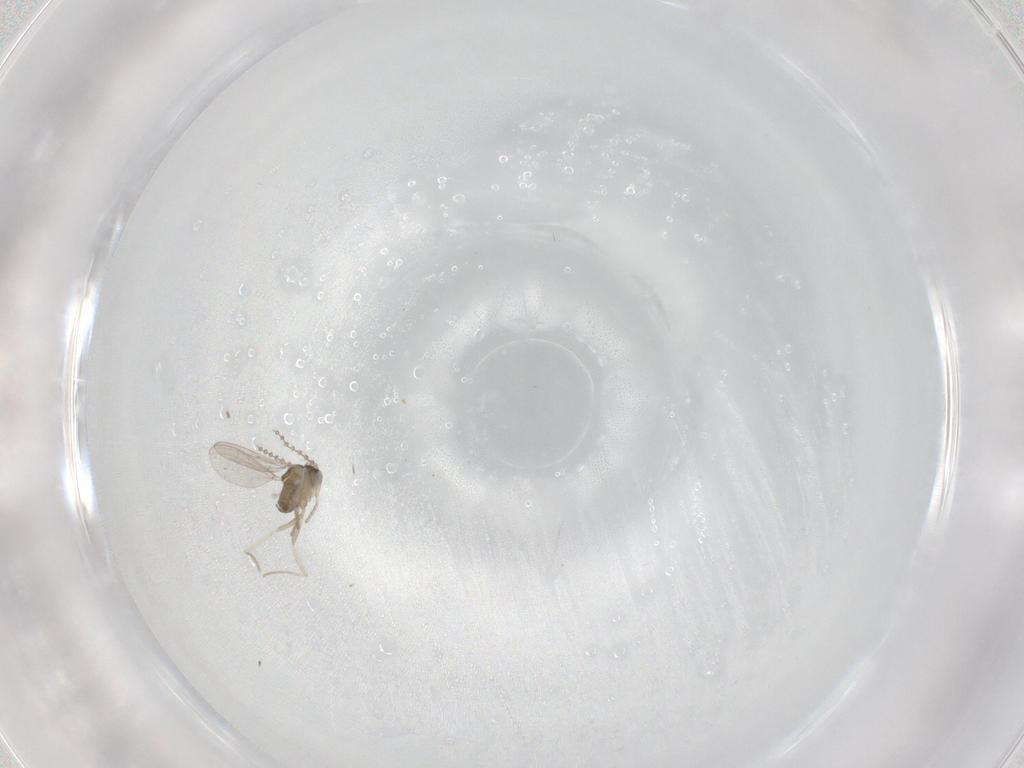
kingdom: Animalia
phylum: Arthropoda
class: Insecta
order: Diptera
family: Cecidomyiidae
